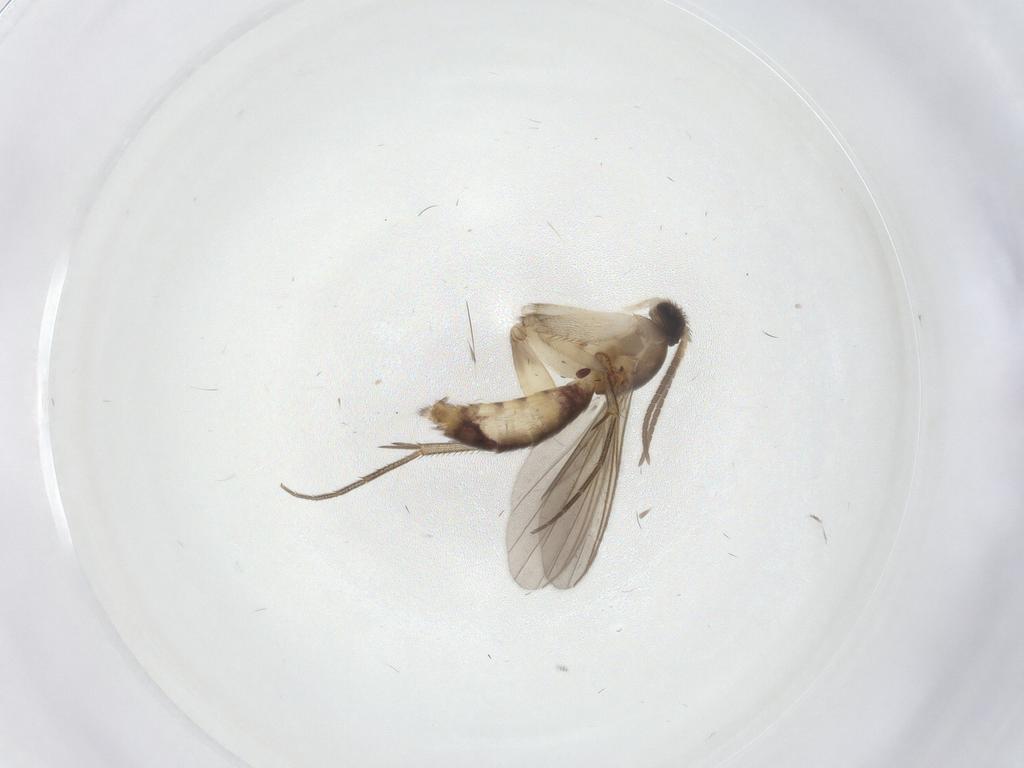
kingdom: Animalia
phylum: Arthropoda
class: Insecta
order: Diptera
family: Mycetophilidae
